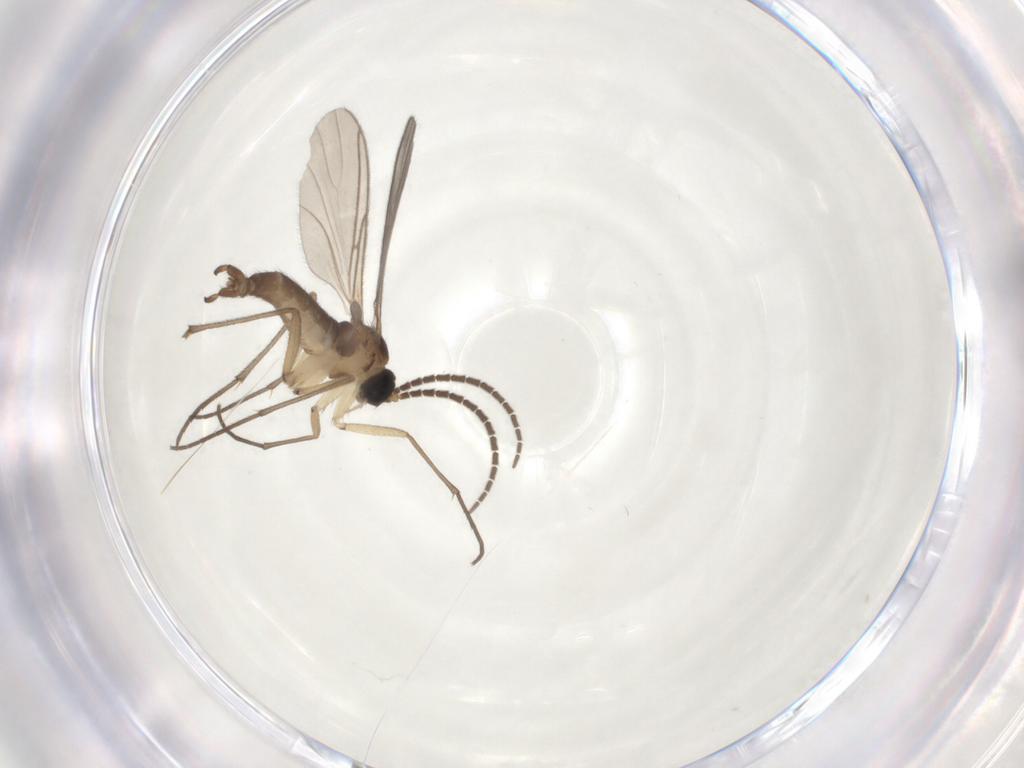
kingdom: Animalia
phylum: Arthropoda
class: Insecta
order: Diptera
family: Sciaridae
